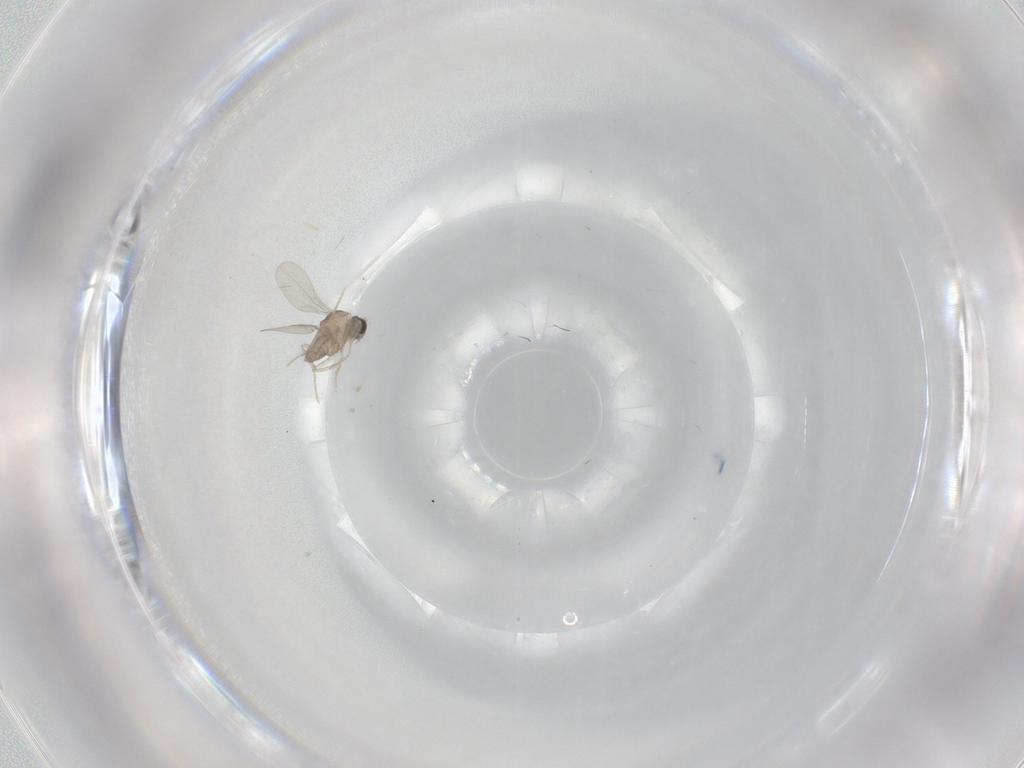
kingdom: Animalia
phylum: Arthropoda
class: Insecta
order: Diptera
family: Cecidomyiidae
